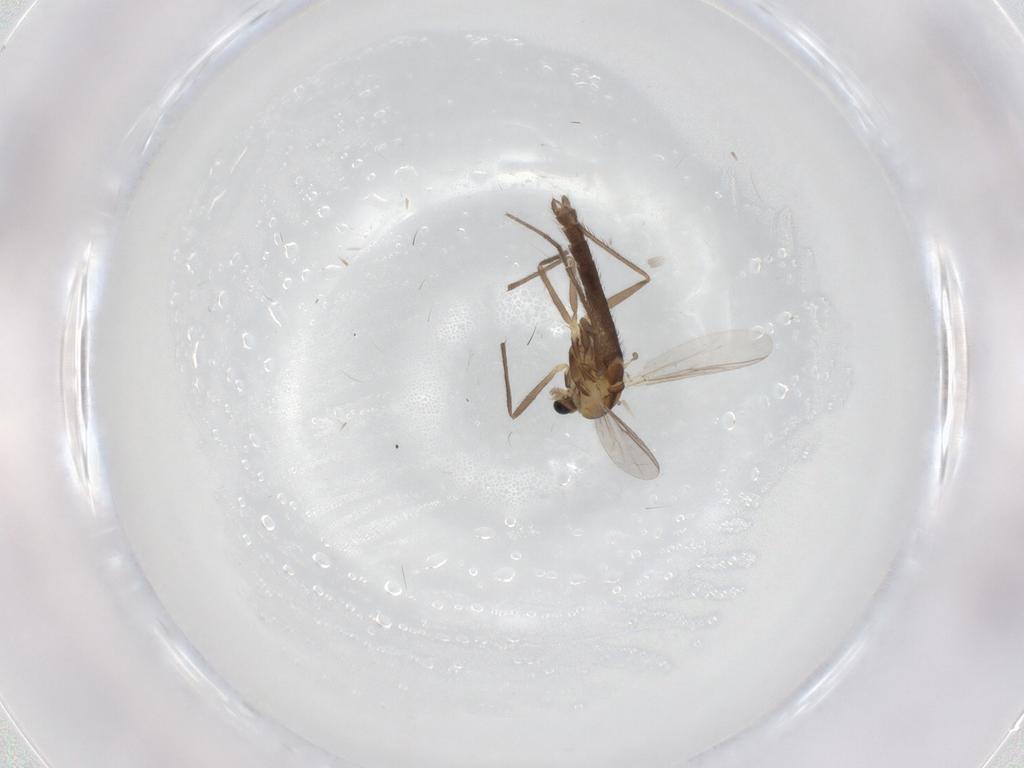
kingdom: Animalia
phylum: Arthropoda
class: Insecta
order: Diptera
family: Chironomidae
